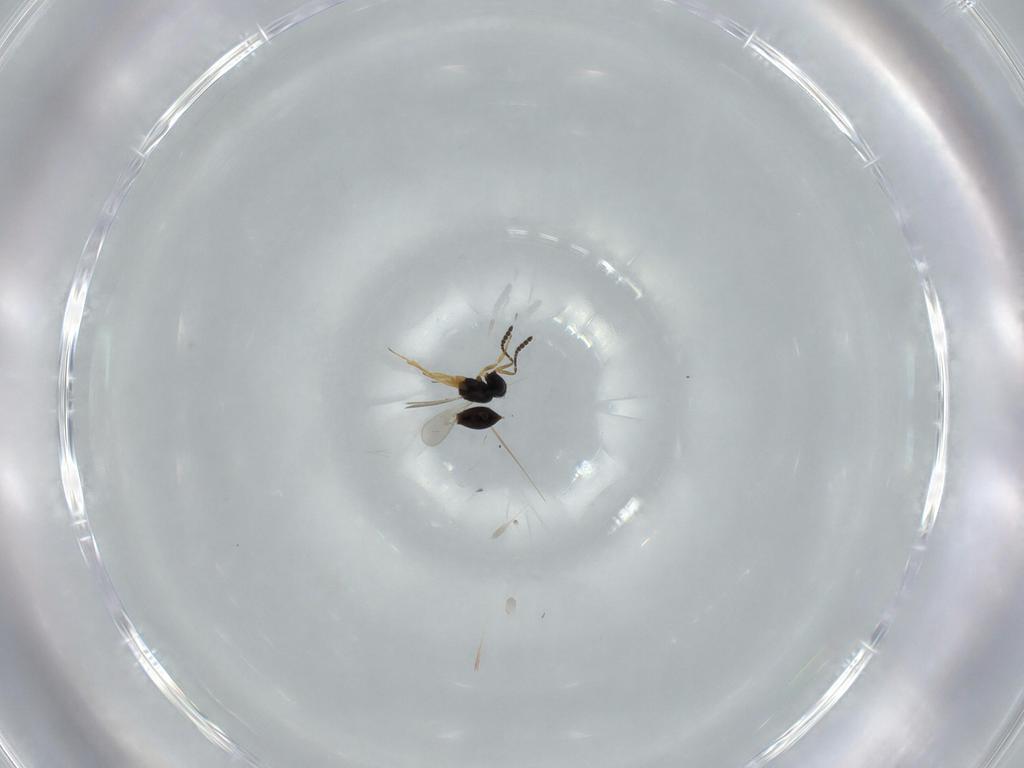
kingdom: Animalia
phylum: Arthropoda
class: Insecta
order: Hymenoptera
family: Scelionidae
